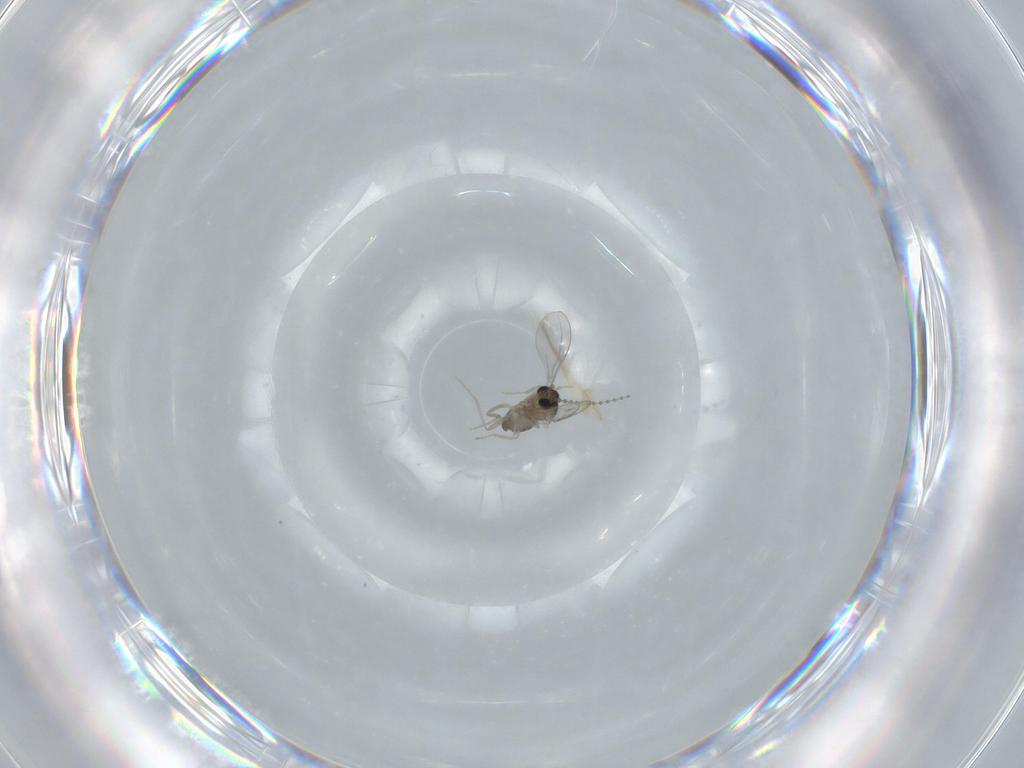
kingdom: Animalia
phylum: Arthropoda
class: Insecta
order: Diptera
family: Cecidomyiidae
